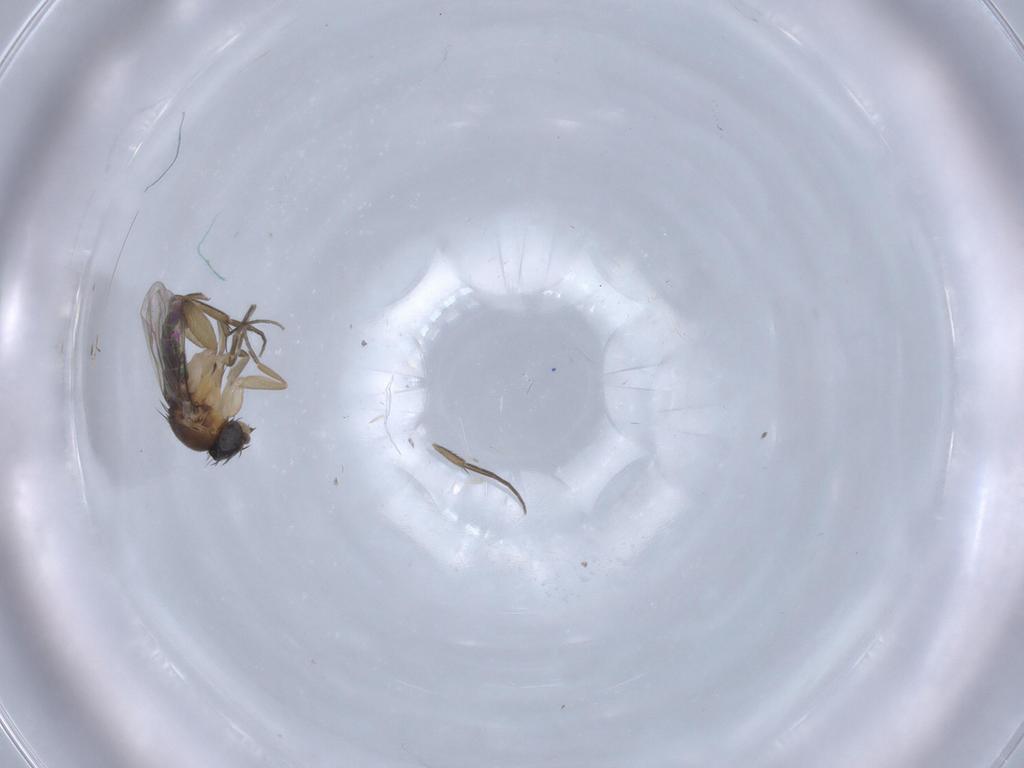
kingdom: Animalia
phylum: Arthropoda
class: Insecta
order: Diptera
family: Phoridae
